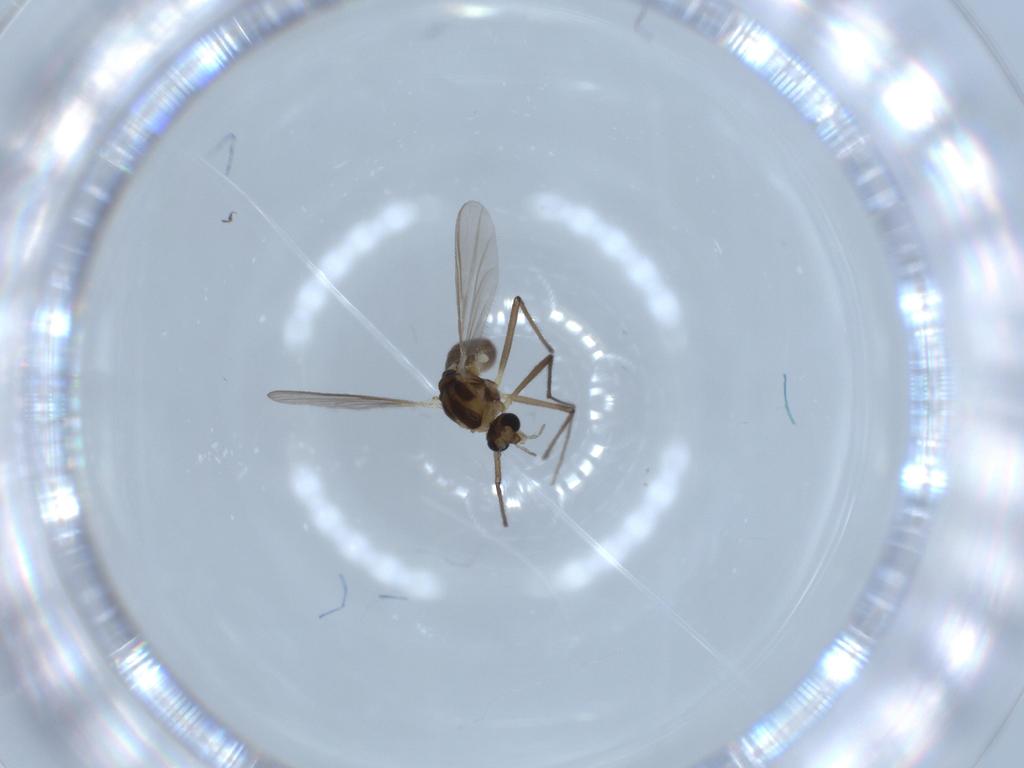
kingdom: Animalia
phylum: Arthropoda
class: Insecta
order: Diptera
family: Chironomidae
